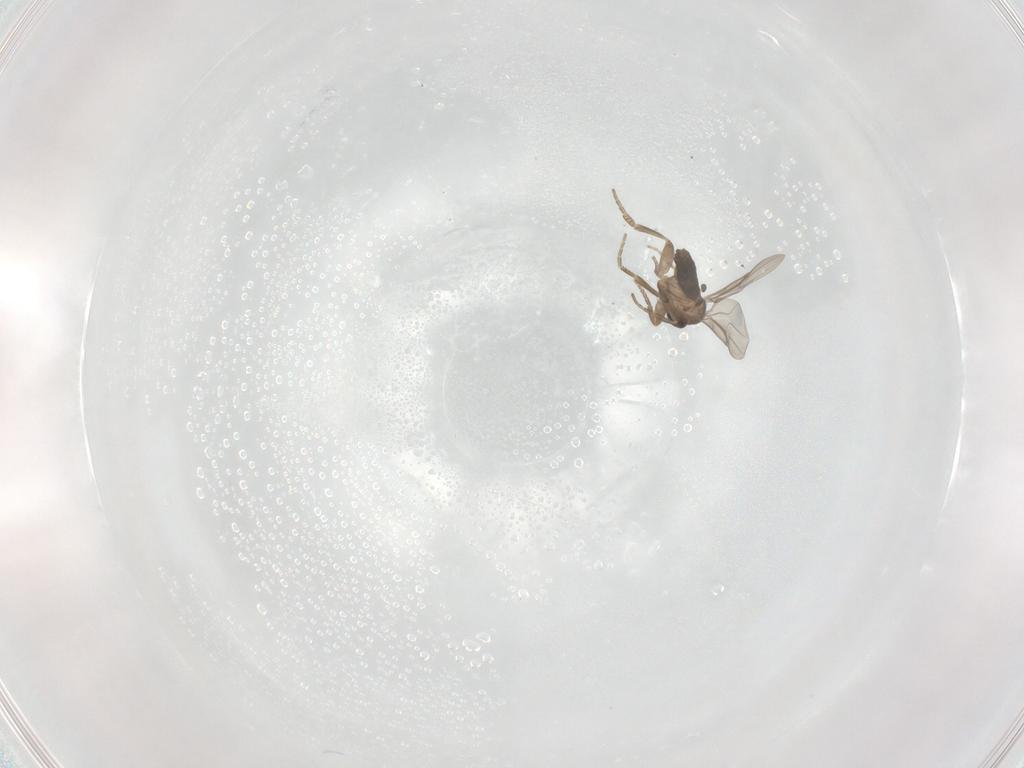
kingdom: Animalia
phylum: Arthropoda
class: Insecta
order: Diptera
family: Cecidomyiidae
